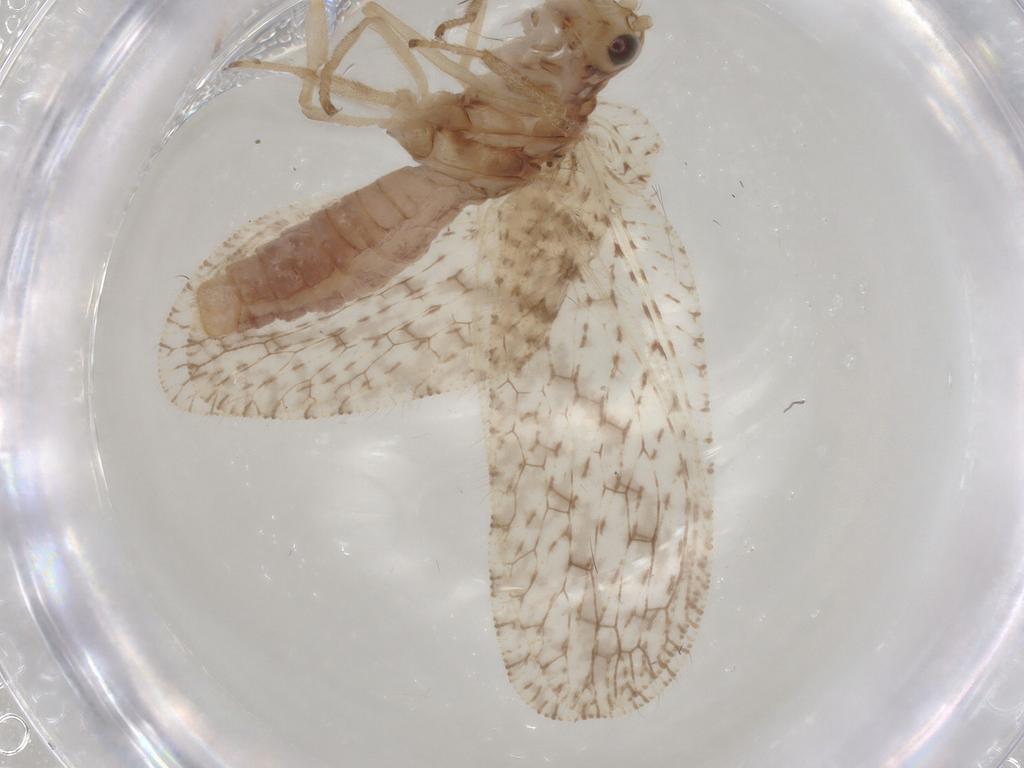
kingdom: Animalia
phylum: Arthropoda
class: Insecta
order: Neuroptera
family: Hemerobiidae
